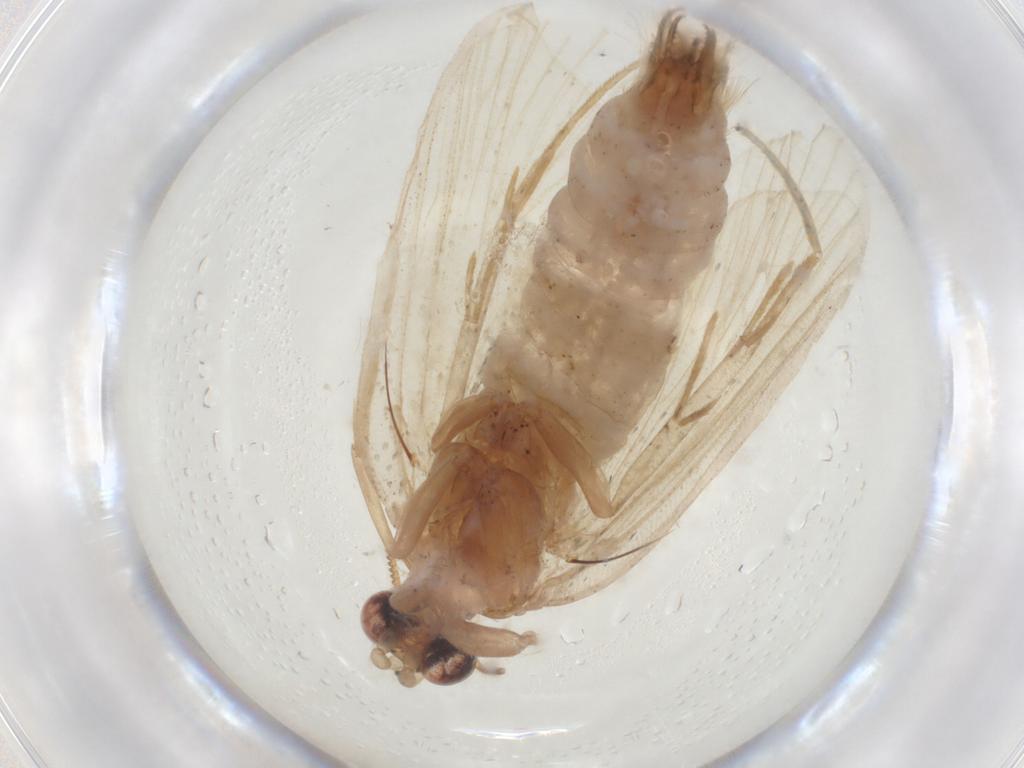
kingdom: Animalia
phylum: Arthropoda
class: Insecta
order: Lepidoptera
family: Psychidae
